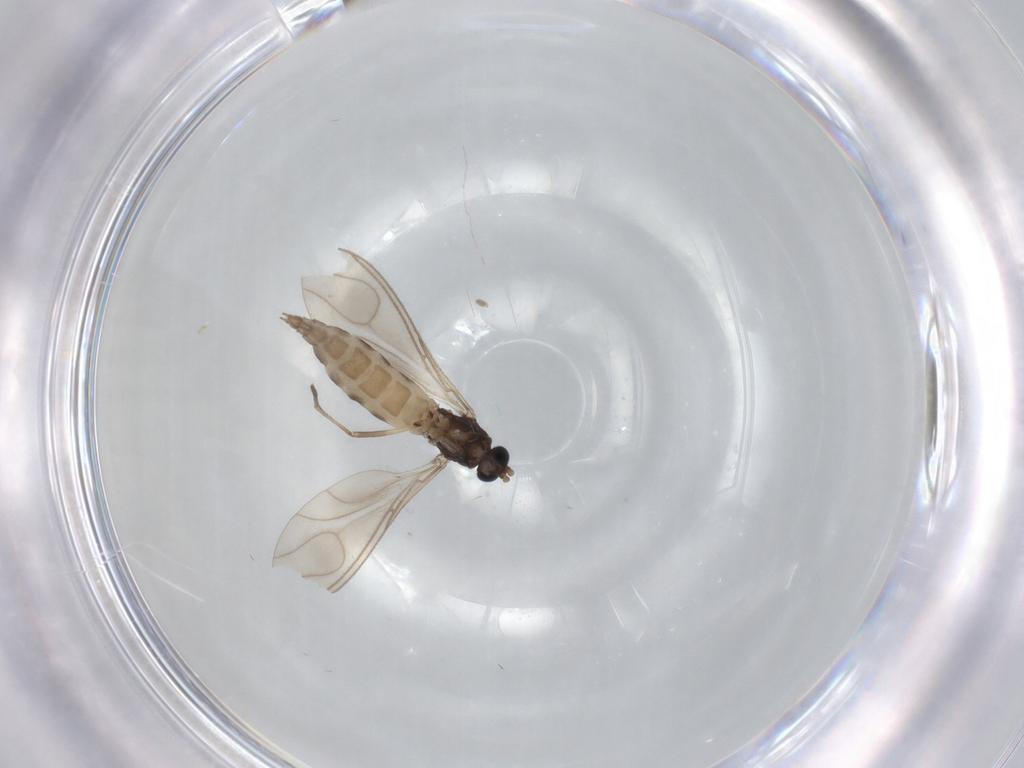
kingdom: Animalia
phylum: Arthropoda
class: Insecta
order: Diptera
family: Sciaridae
